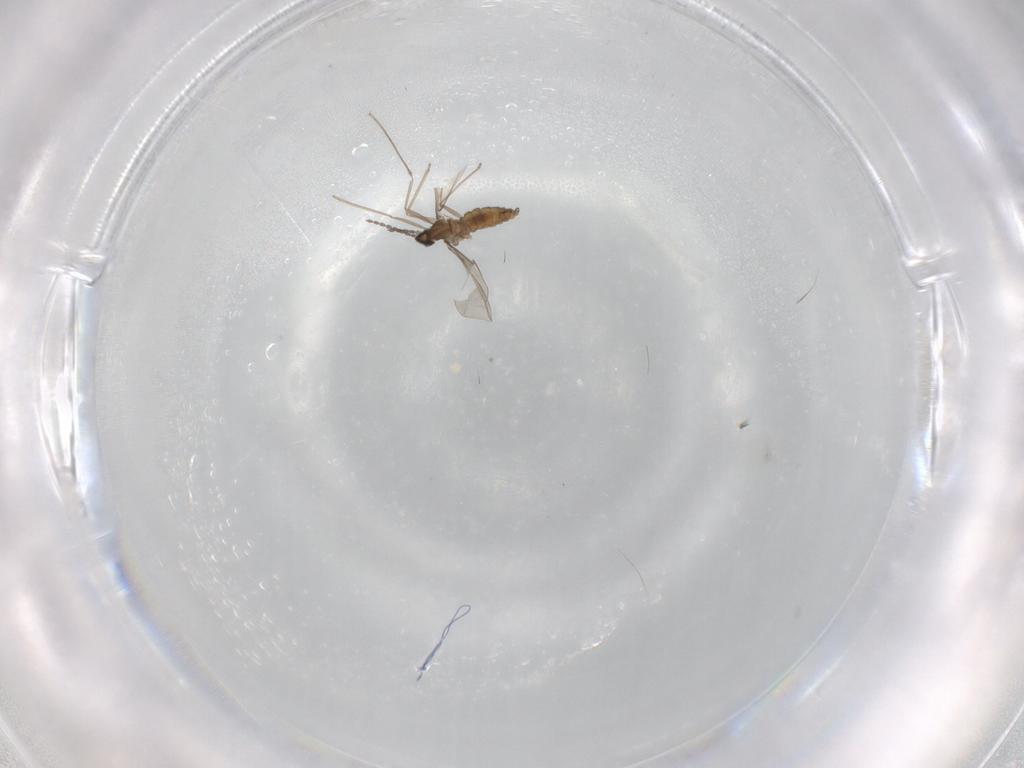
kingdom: Animalia
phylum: Arthropoda
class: Insecta
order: Diptera
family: Cecidomyiidae
